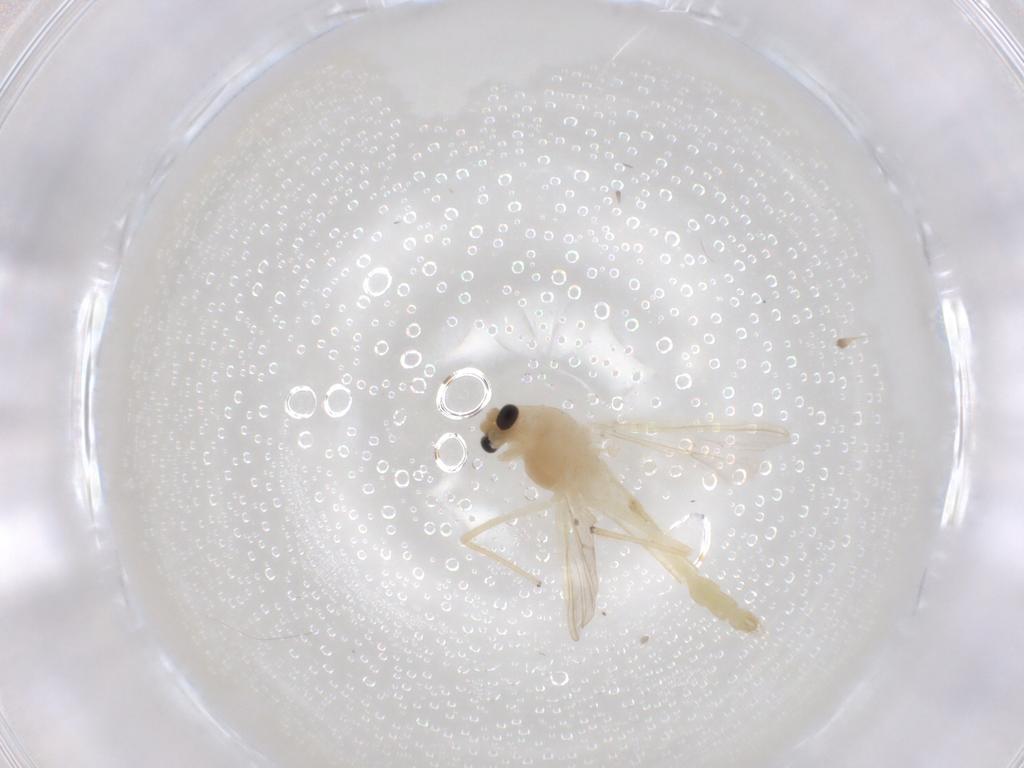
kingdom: Animalia
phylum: Arthropoda
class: Insecta
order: Diptera
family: Chironomidae
